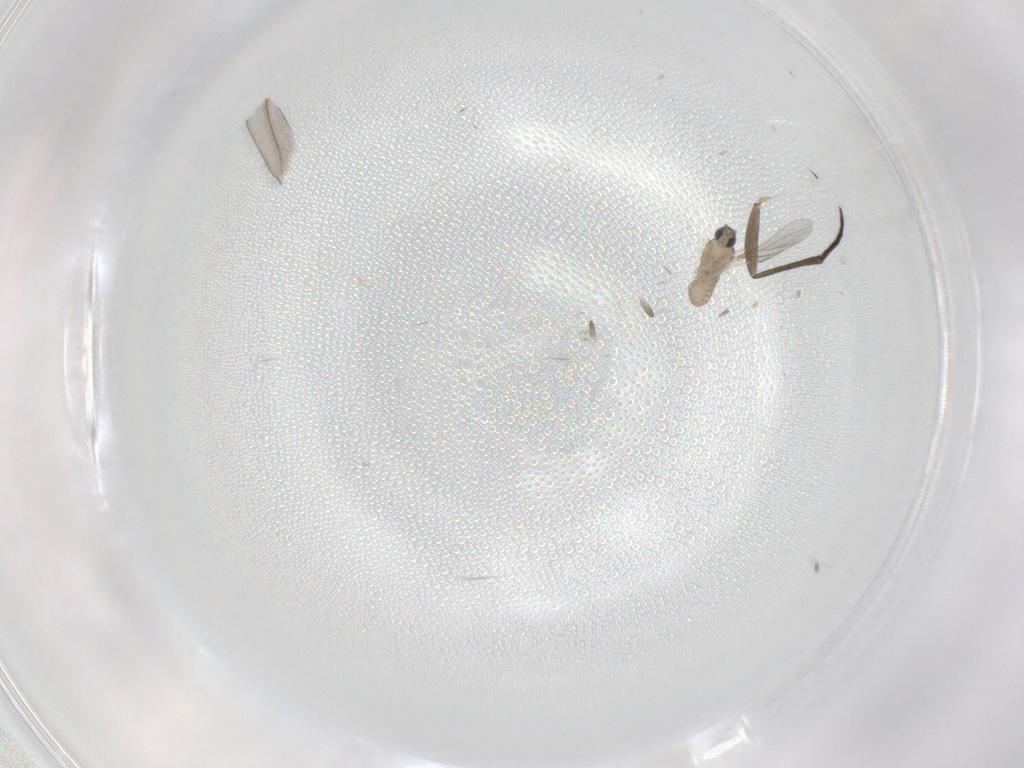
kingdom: Animalia
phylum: Arthropoda
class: Insecta
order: Diptera
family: Sciaridae
